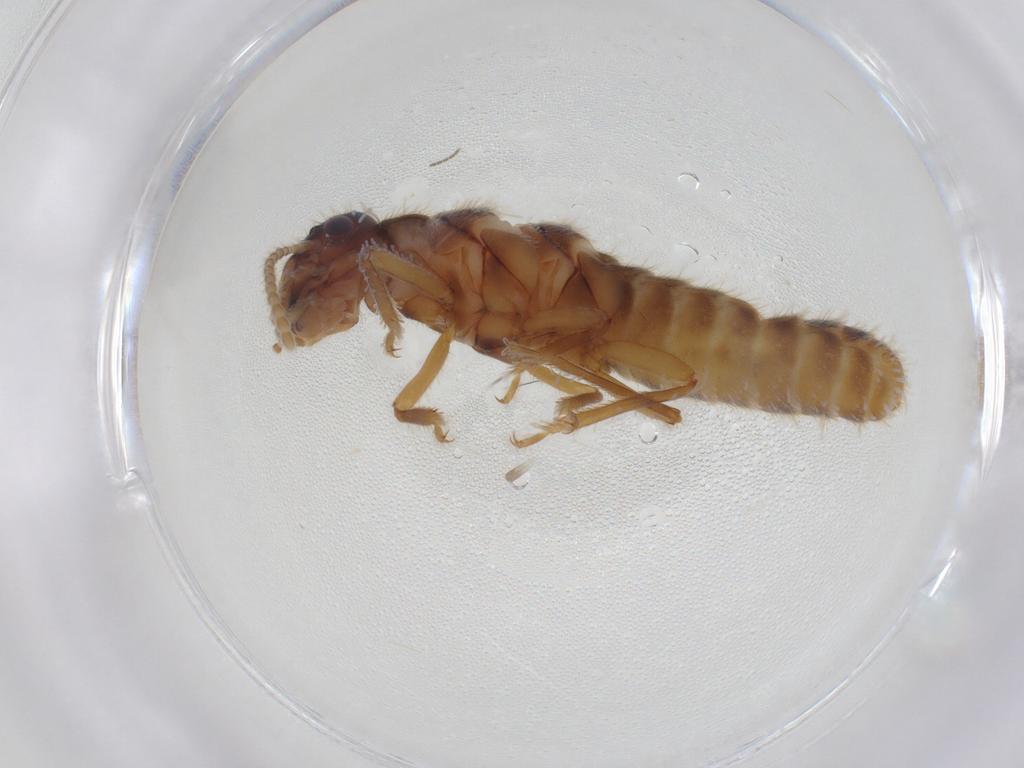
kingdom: Animalia
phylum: Arthropoda
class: Insecta
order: Blattodea
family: Termitidae
